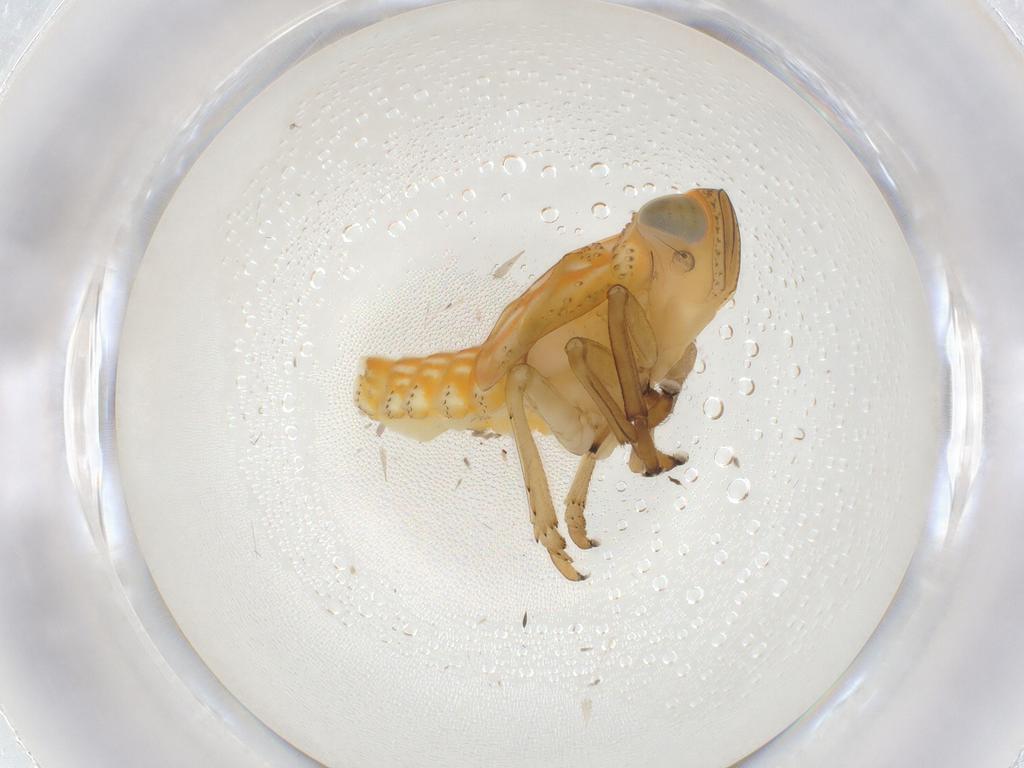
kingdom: Animalia
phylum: Arthropoda
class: Insecta
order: Hemiptera
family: Issidae
